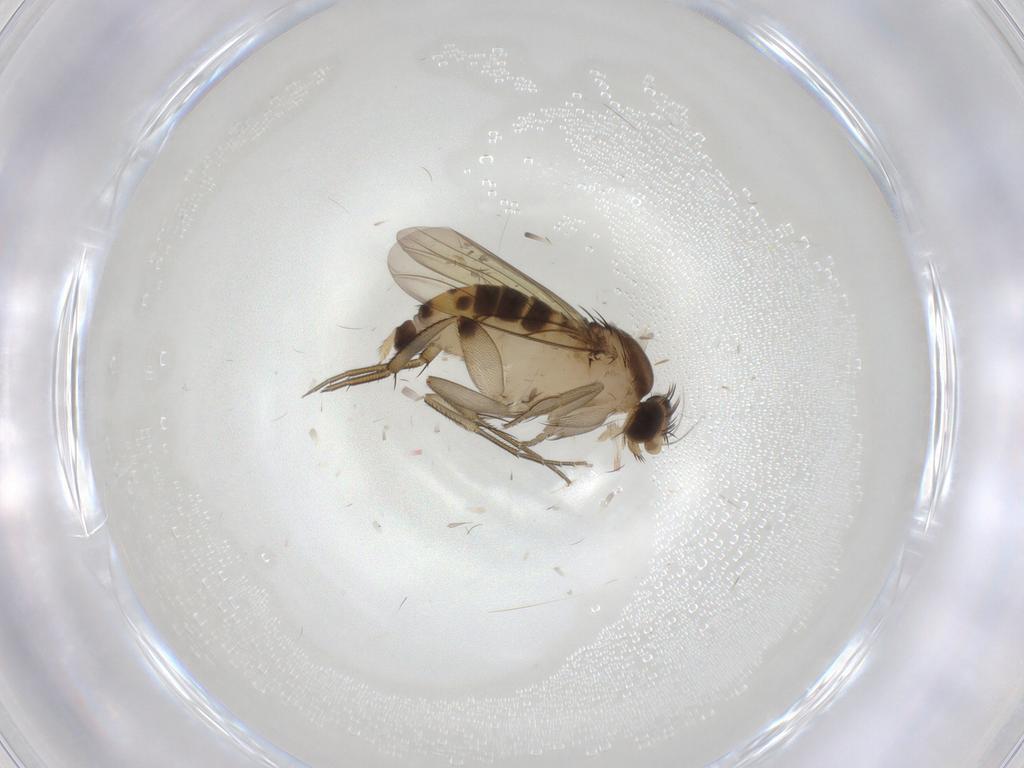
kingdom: Animalia
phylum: Arthropoda
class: Insecta
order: Diptera
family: Phoridae
